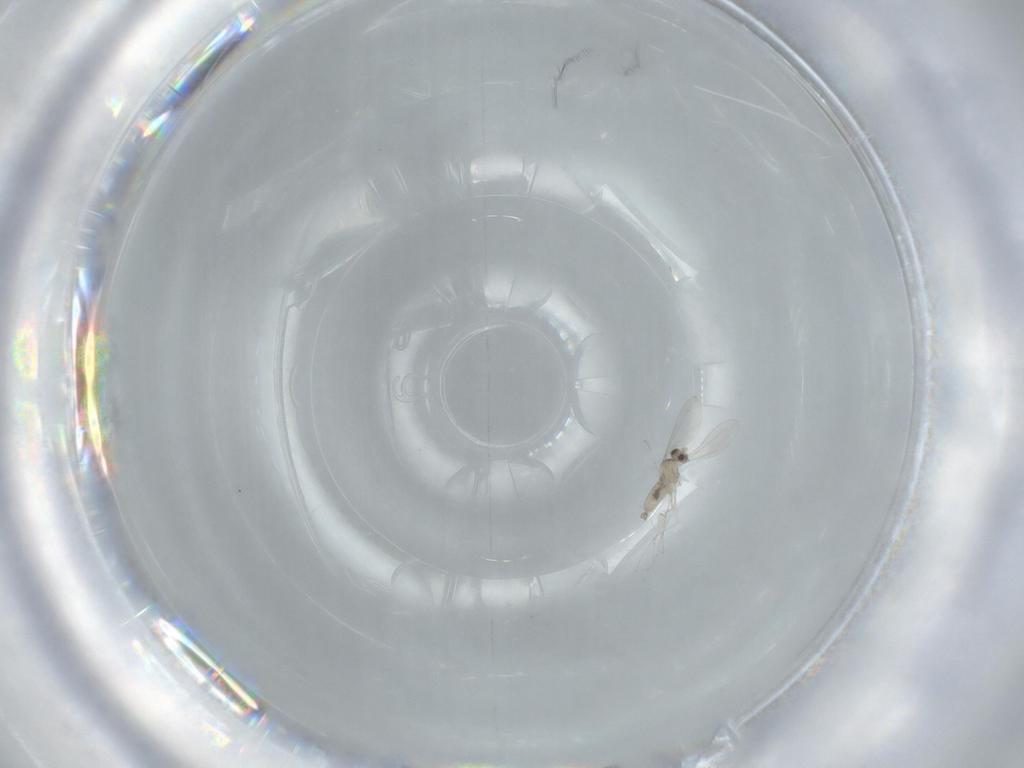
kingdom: Animalia
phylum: Arthropoda
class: Insecta
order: Diptera
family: Cecidomyiidae
